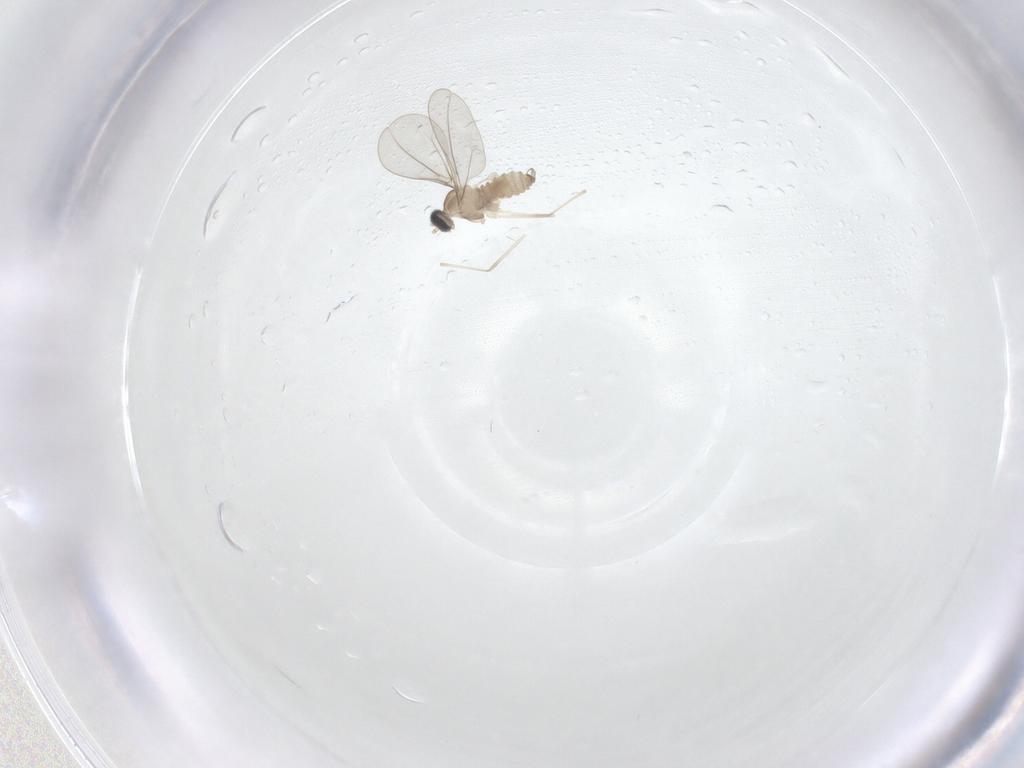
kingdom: Animalia
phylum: Arthropoda
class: Insecta
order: Diptera
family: Cecidomyiidae
